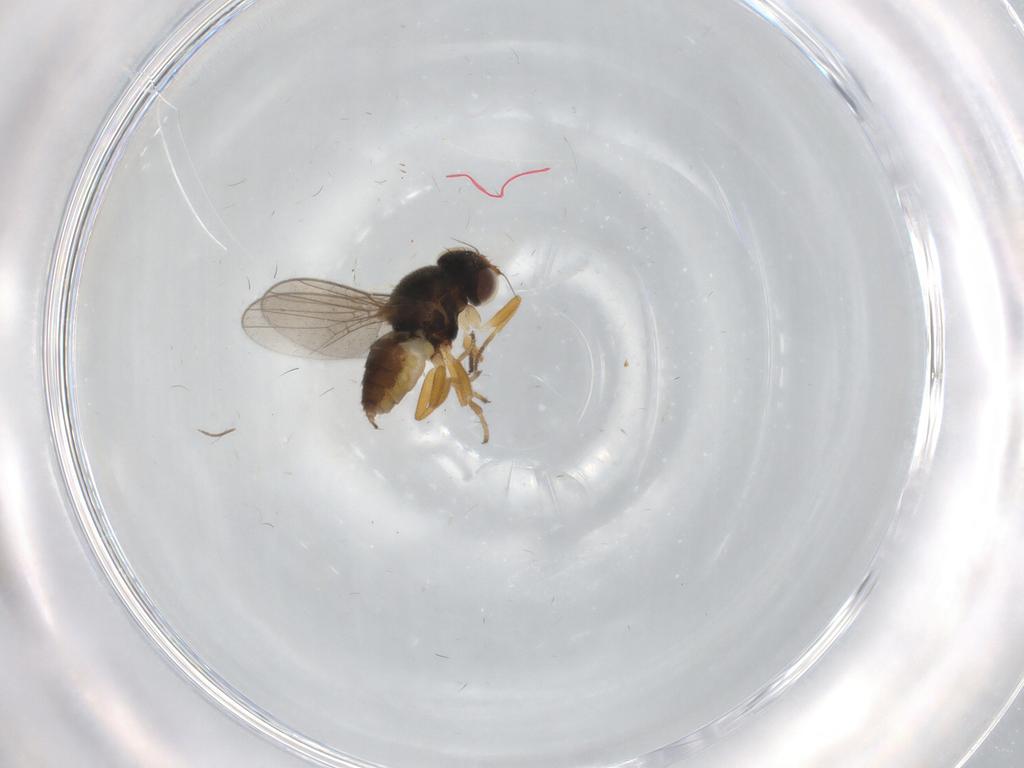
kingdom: Animalia
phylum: Arthropoda
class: Insecta
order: Diptera
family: Chloropidae
